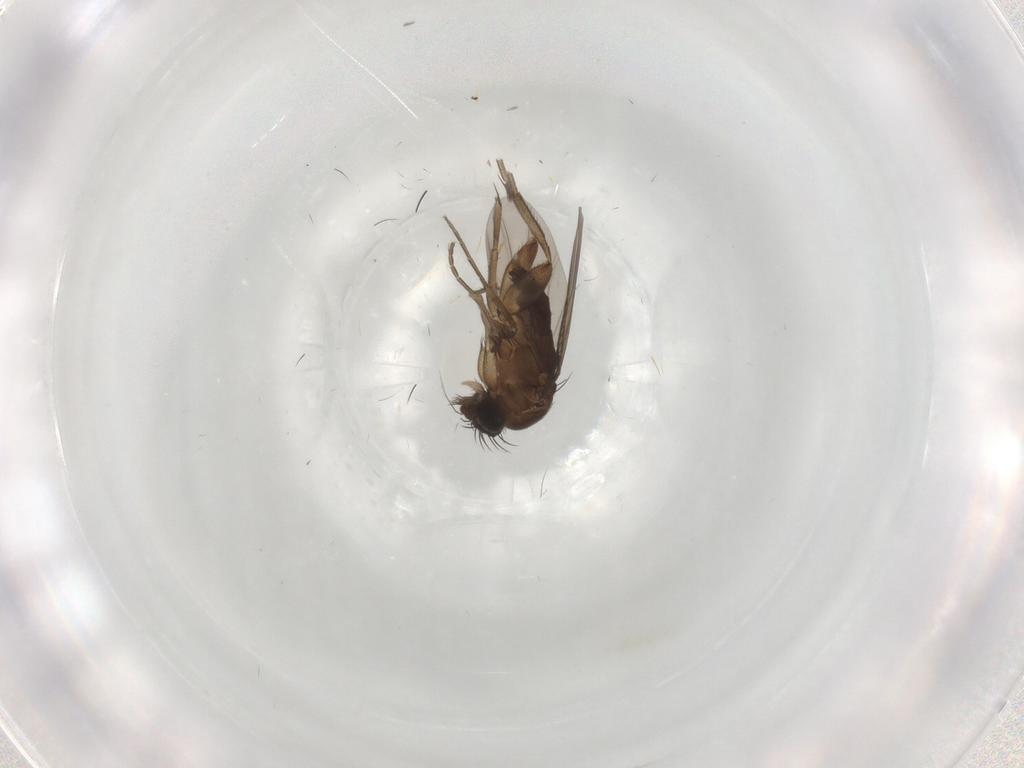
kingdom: Animalia
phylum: Arthropoda
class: Insecta
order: Diptera
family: Phoridae
